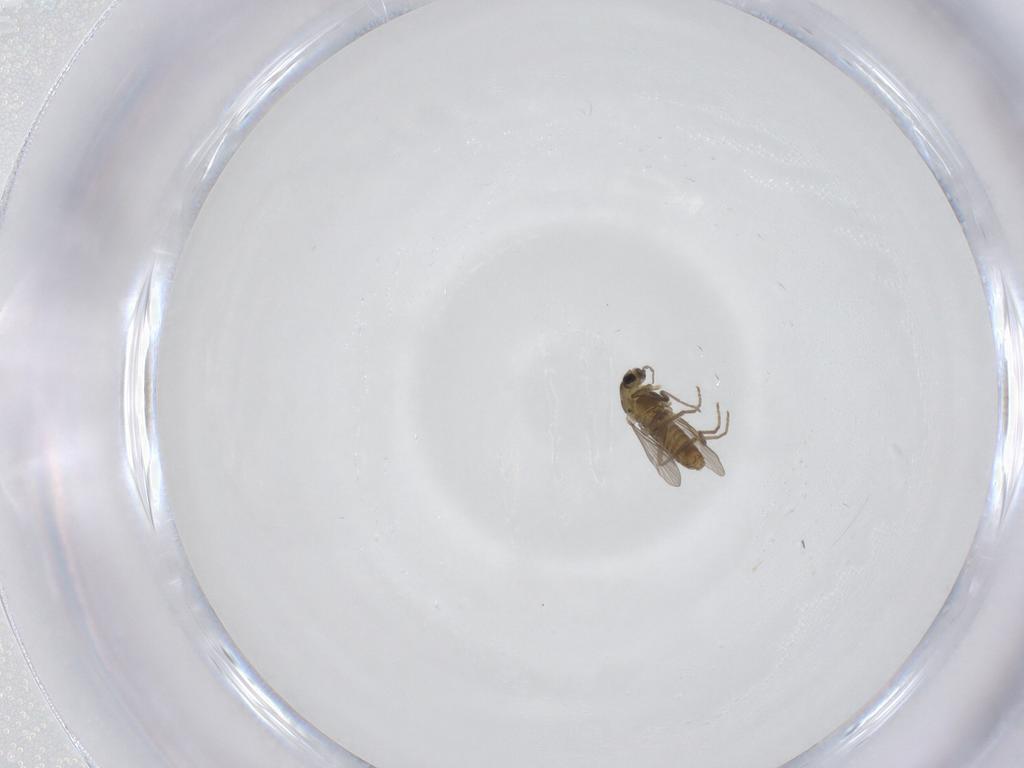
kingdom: Animalia
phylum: Arthropoda
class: Insecta
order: Diptera
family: Chironomidae
